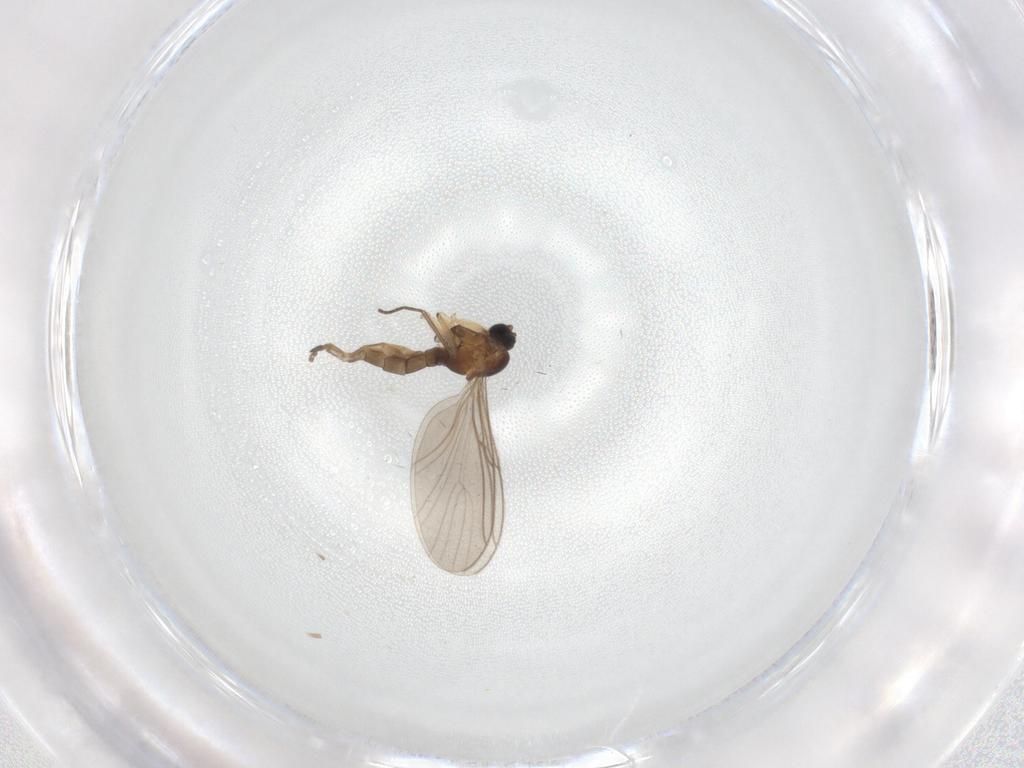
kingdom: Animalia
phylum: Arthropoda
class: Insecta
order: Diptera
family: Sciaridae
